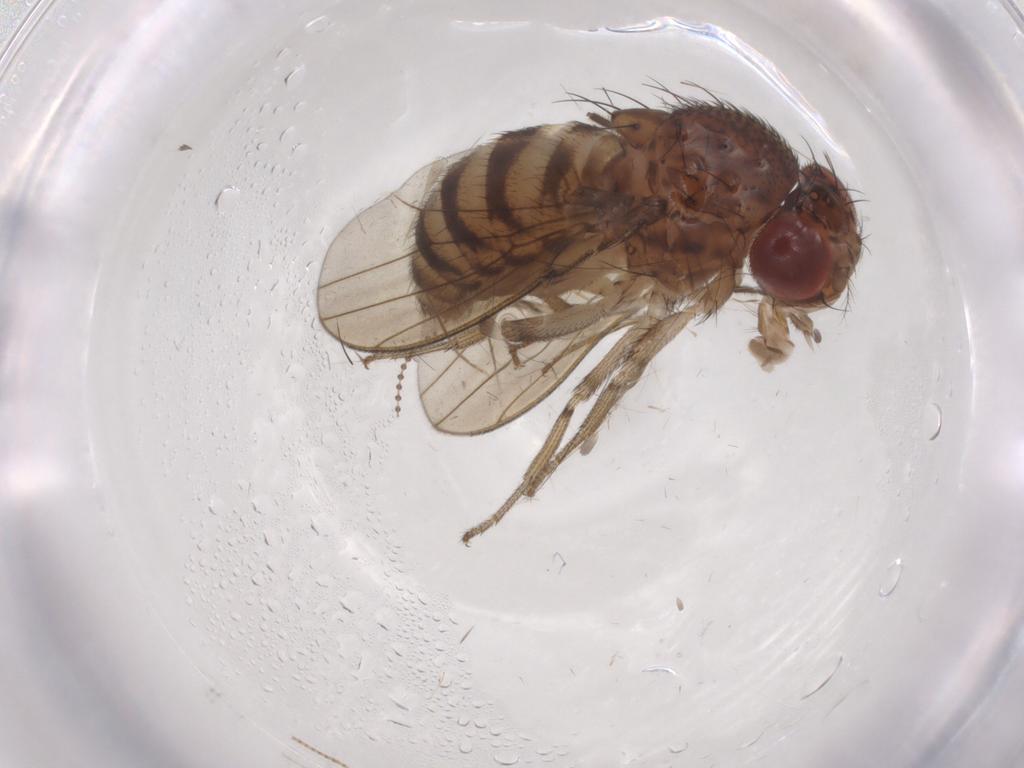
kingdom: Animalia
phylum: Arthropoda
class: Insecta
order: Diptera
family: Drosophilidae
